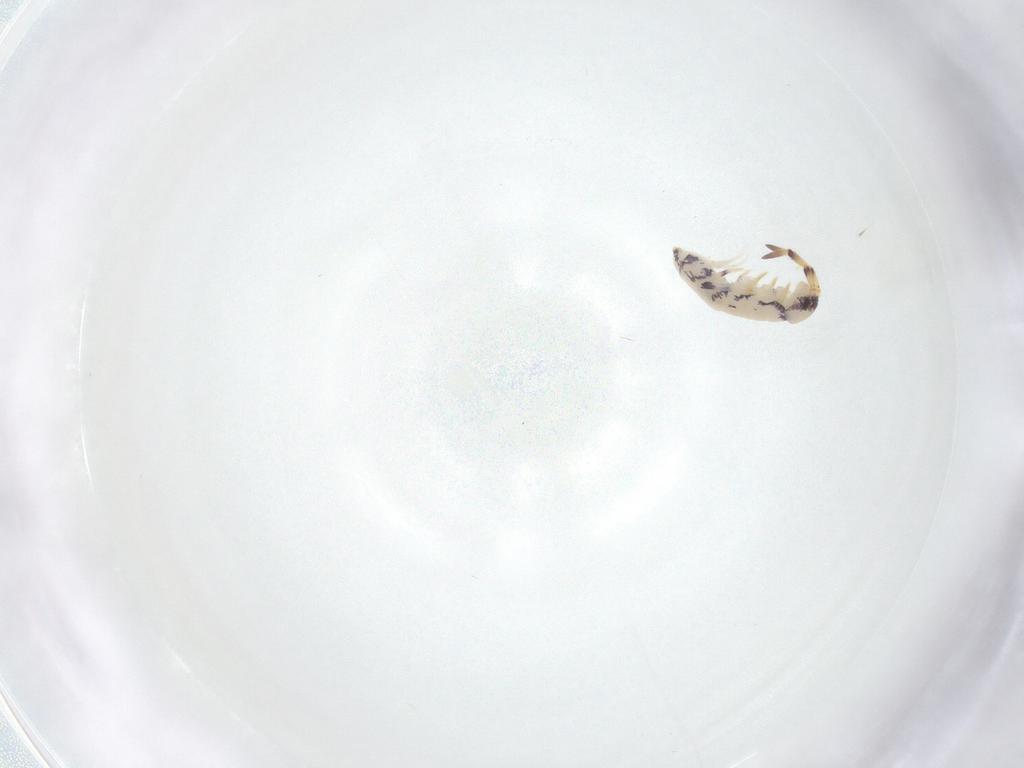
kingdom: Animalia
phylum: Arthropoda
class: Collembola
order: Entomobryomorpha
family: Isotomidae
